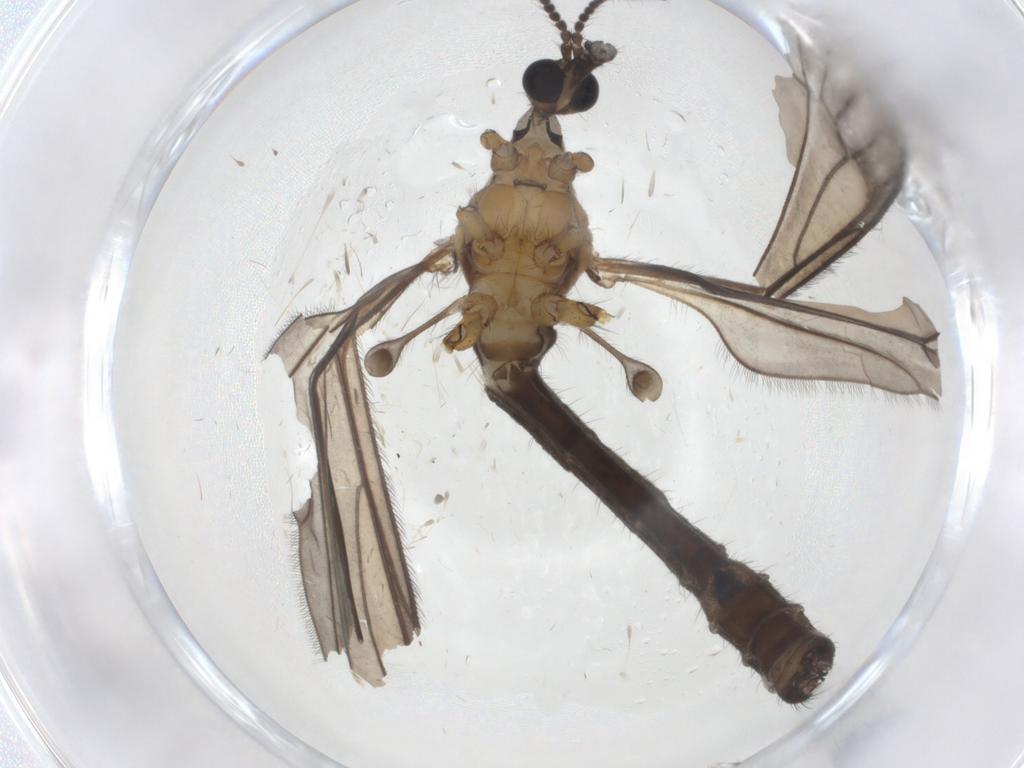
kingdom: Animalia
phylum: Arthropoda
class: Insecta
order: Diptera
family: Limoniidae
